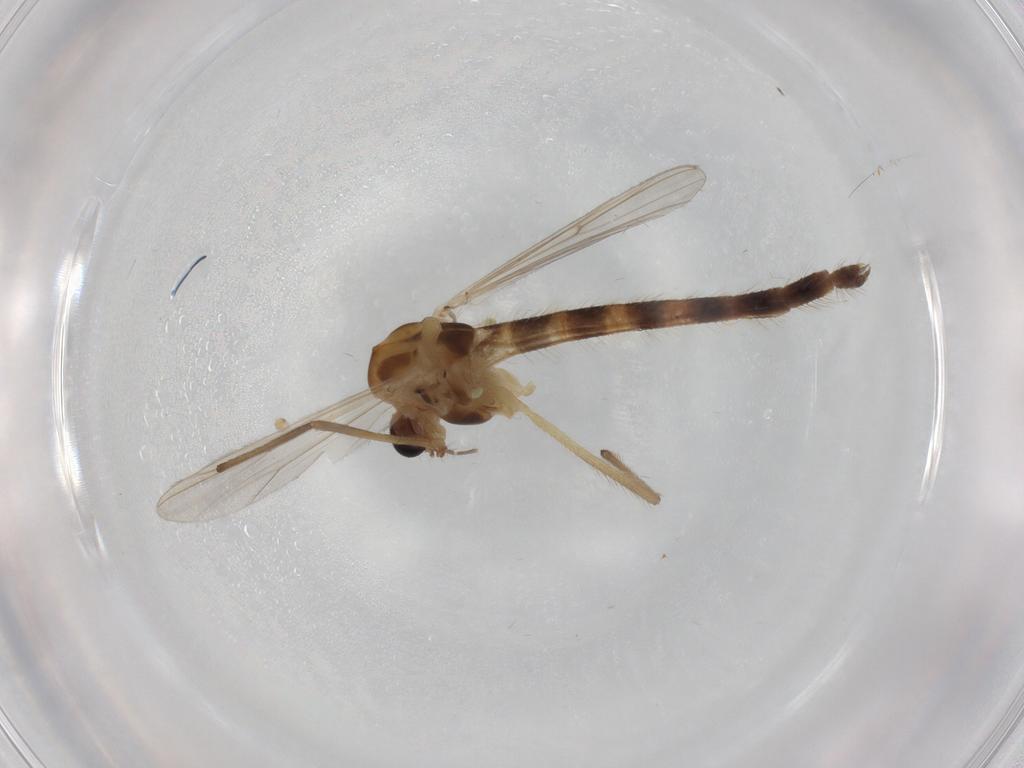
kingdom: Animalia
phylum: Arthropoda
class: Insecta
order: Diptera
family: Chironomidae
